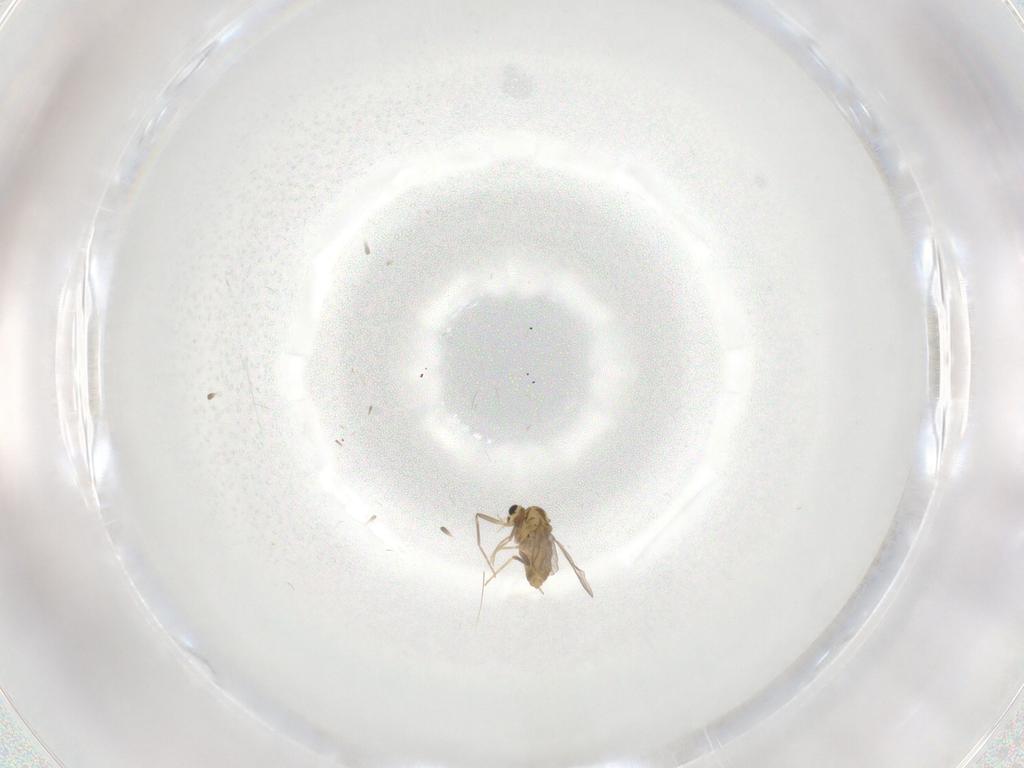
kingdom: Animalia
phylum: Arthropoda
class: Insecta
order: Diptera
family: Chironomidae
